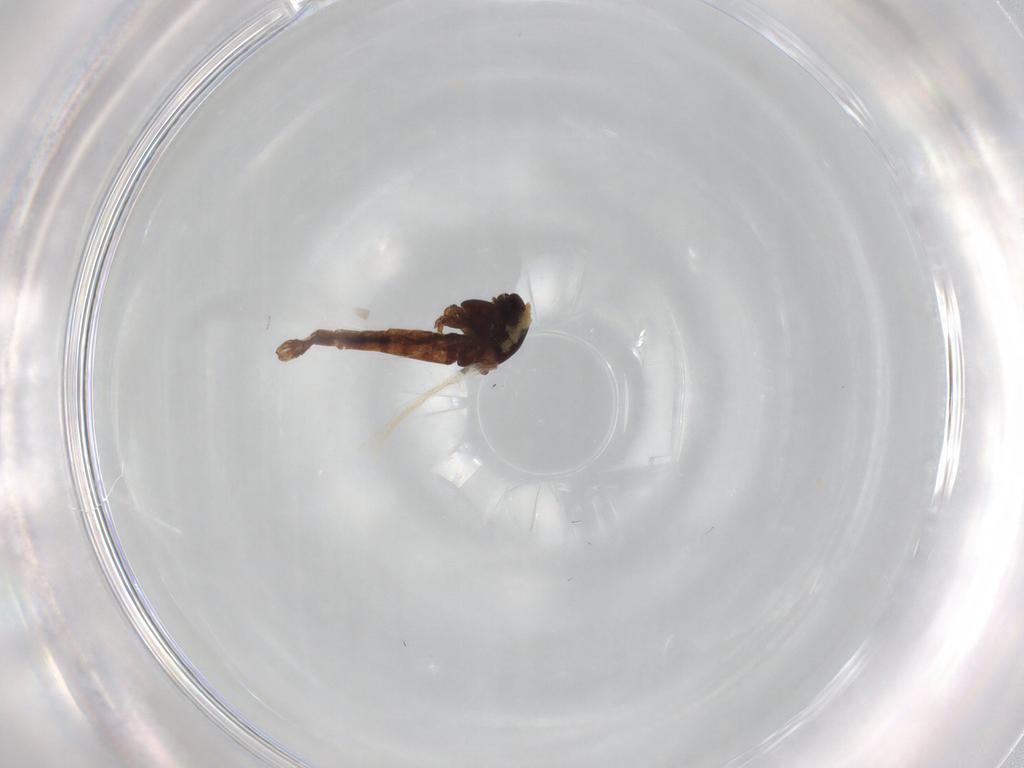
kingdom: Animalia
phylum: Arthropoda
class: Insecta
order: Diptera
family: Chironomidae
